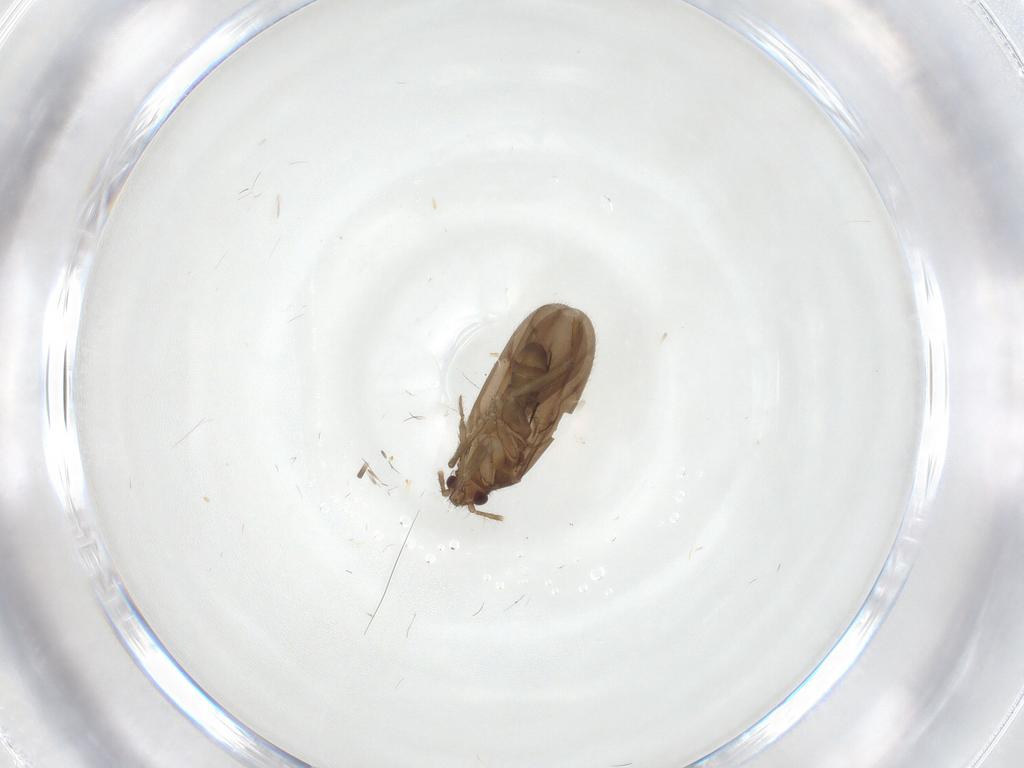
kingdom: Animalia
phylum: Arthropoda
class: Insecta
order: Hemiptera
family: Ceratocombidae
